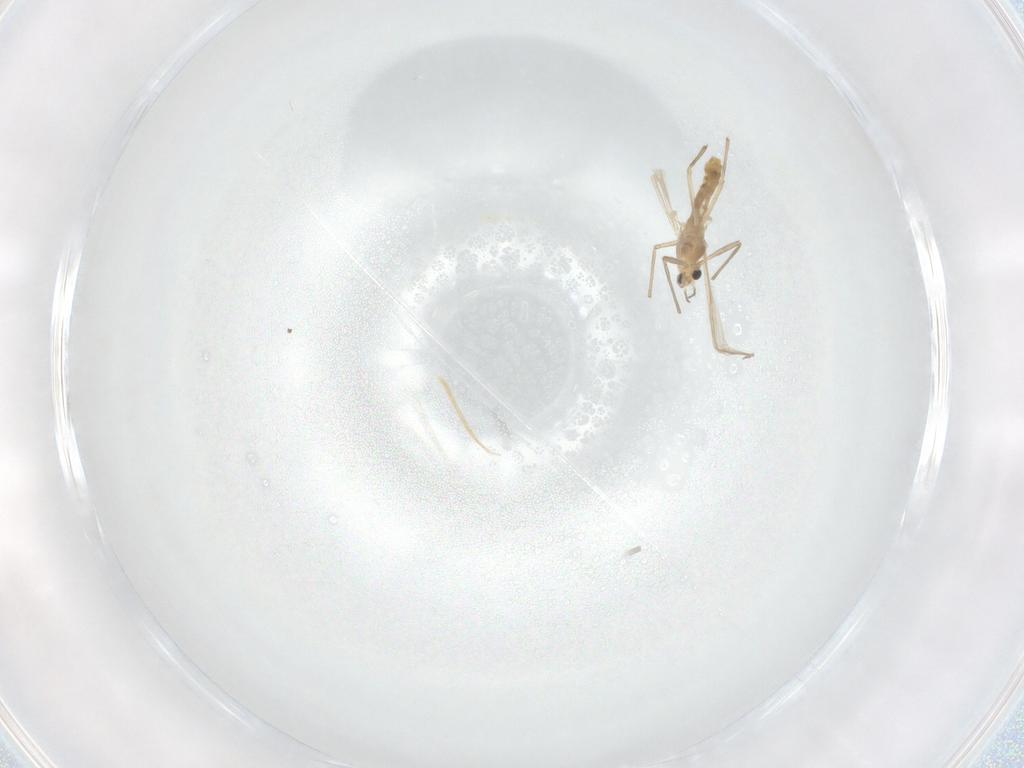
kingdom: Animalia
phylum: Arthropoda
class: Insecta
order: Diptera
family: Chironomidae
